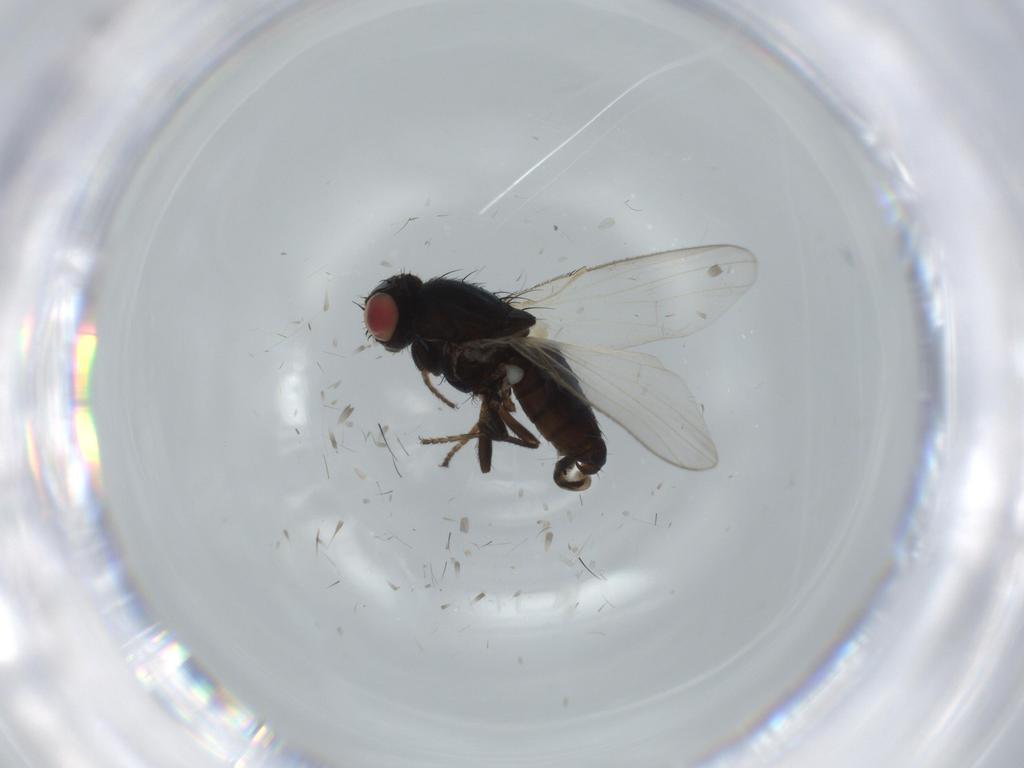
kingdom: Animalia
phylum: Arthropoda
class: Insecta
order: Diptera
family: Carnidae
